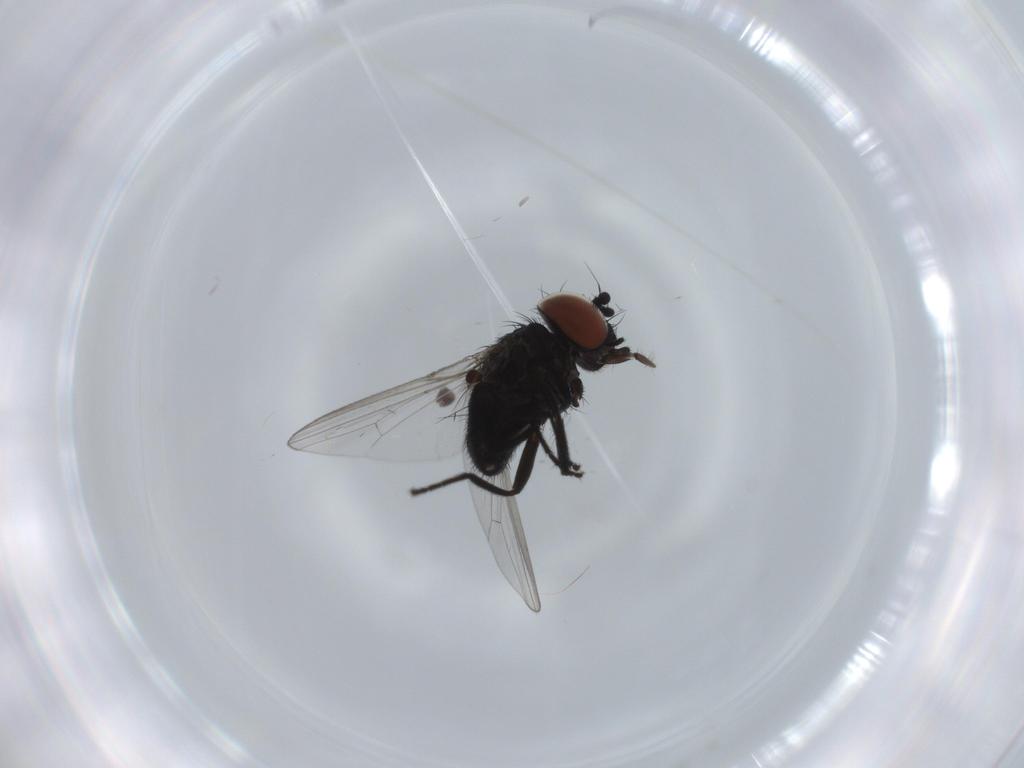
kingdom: Animalia
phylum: Arthropoda
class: Insecta
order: Diptera
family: Milichiidae
